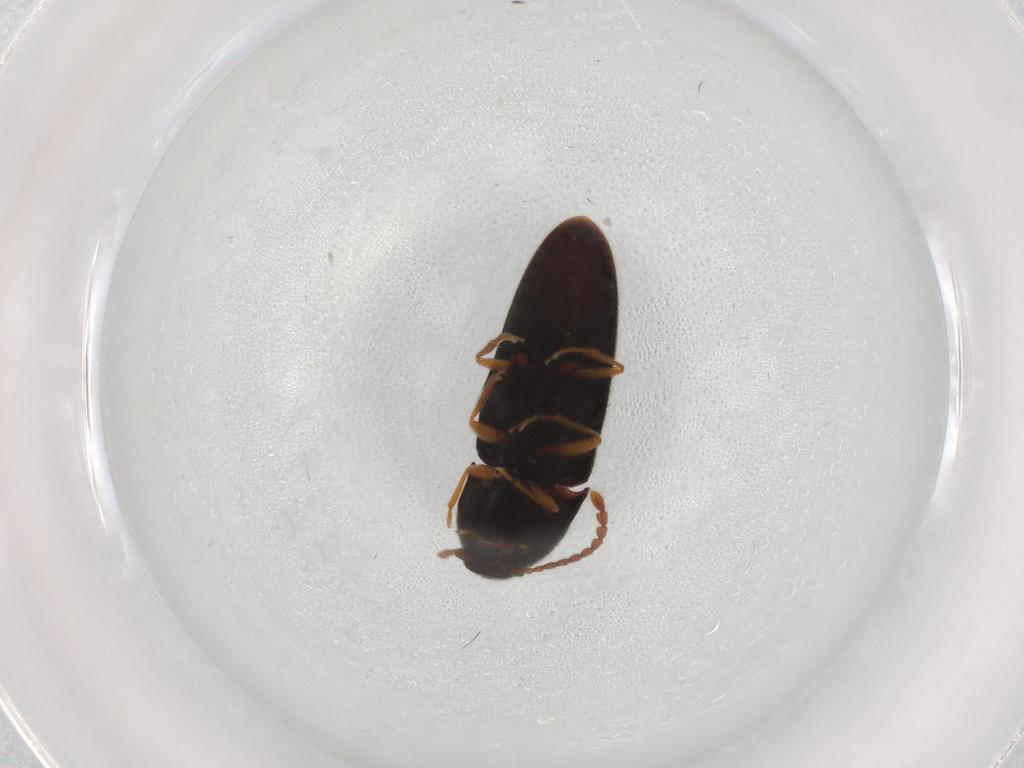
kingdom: Animalia
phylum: Arthropoda
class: Insecta
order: Coleoptera
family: Elateridae
